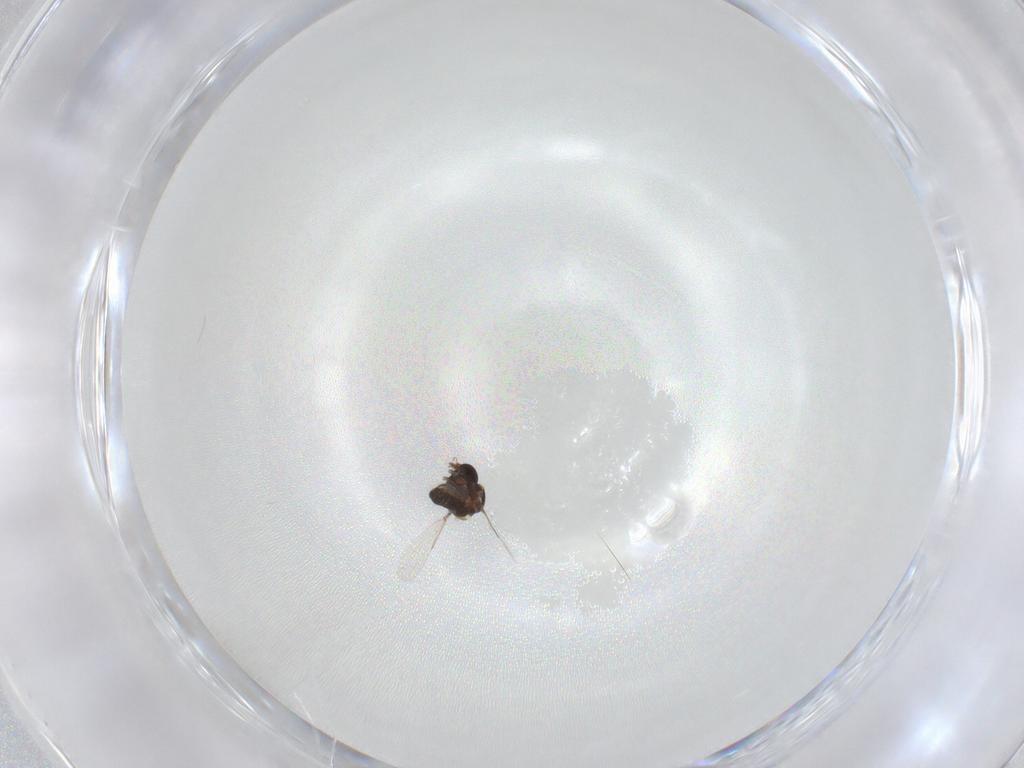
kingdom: Animalia
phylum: Arthropoda
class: Insecta
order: Diptera
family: Ceratopogonidae
